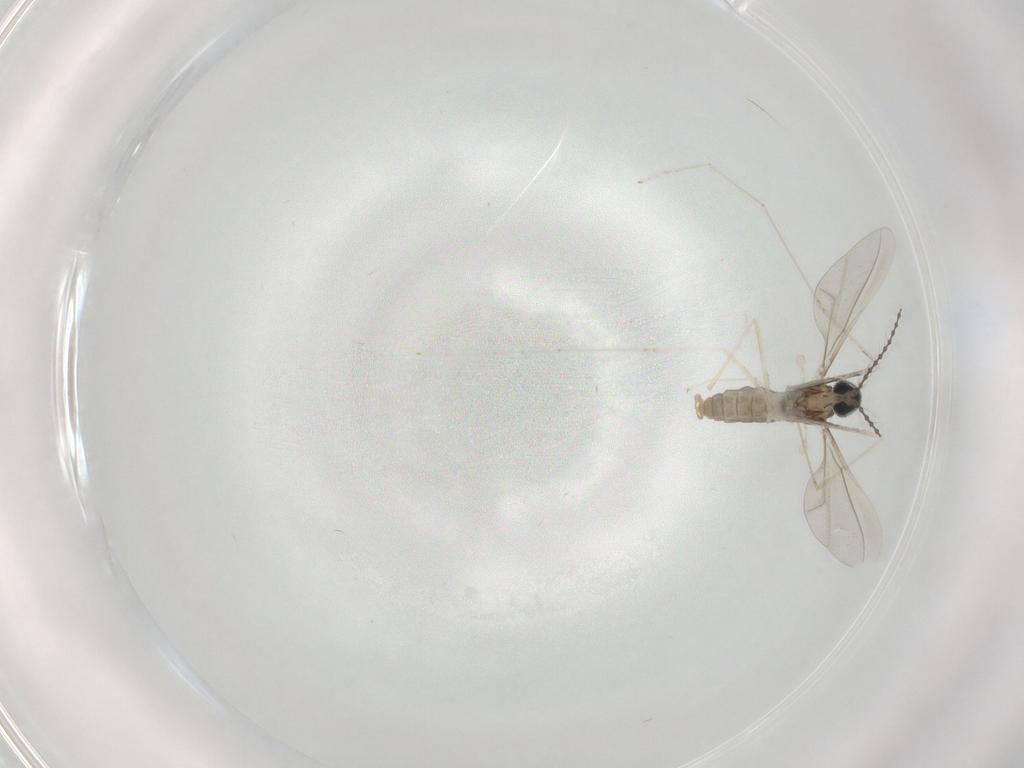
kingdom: Animalia
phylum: Arthropoda
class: Insecta
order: Diptera
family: Cecidomyiidae
